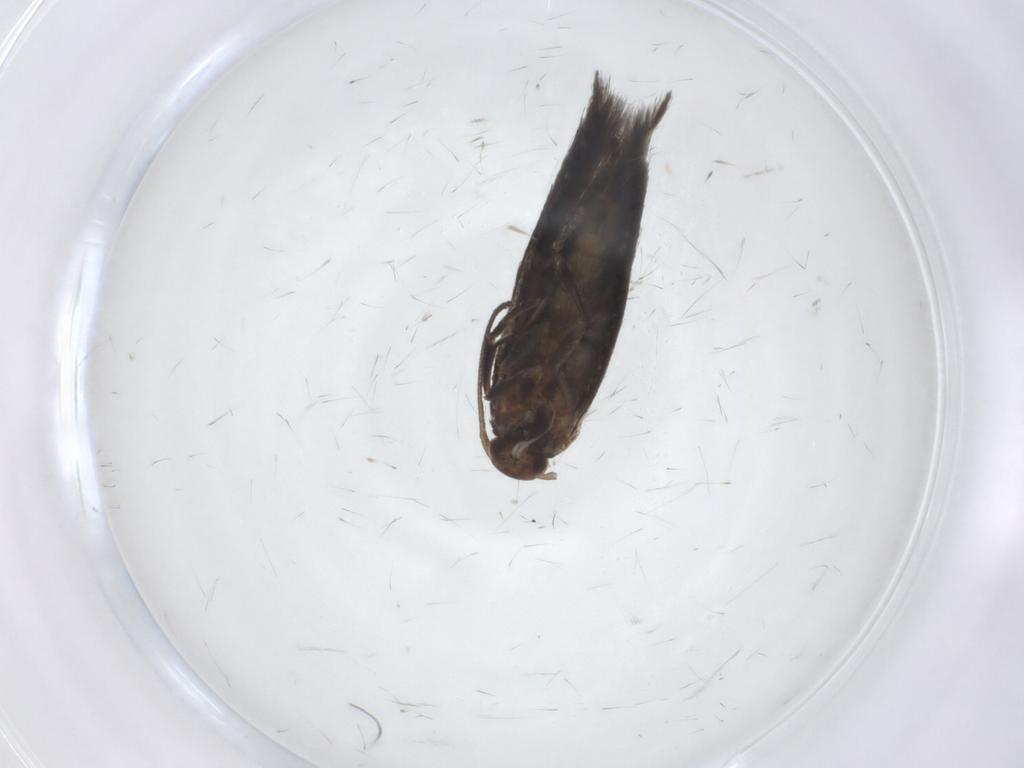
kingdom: Animalia
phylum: Arthropoda
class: Insecta
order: Lepidoptera
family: Elachistidae
